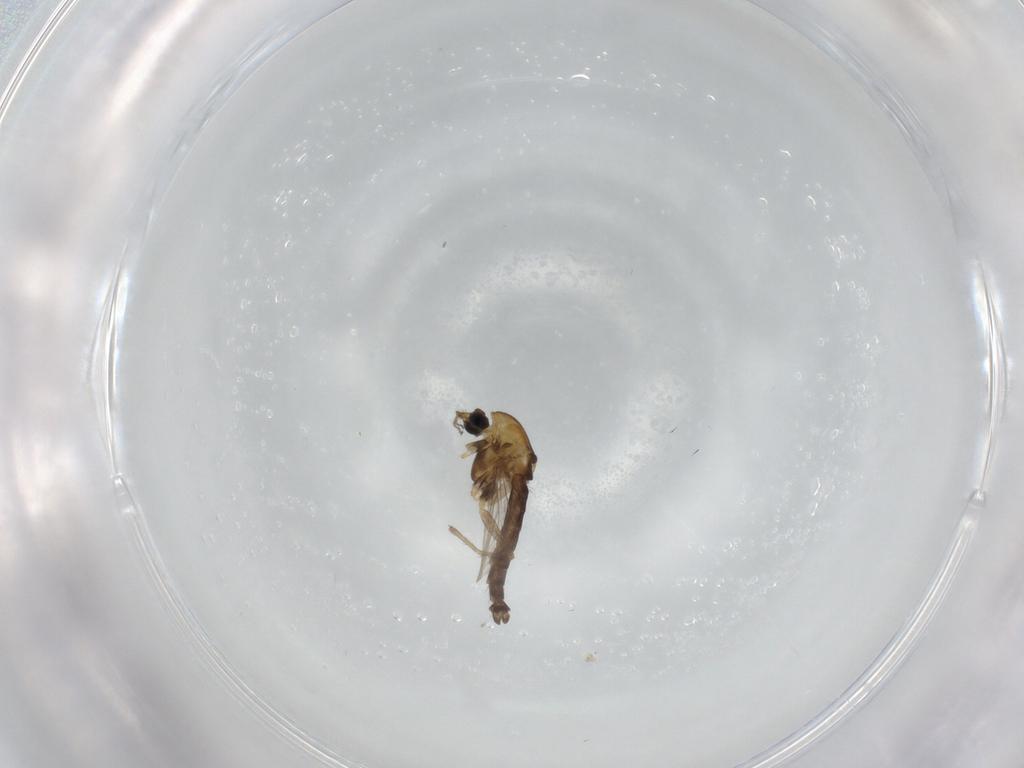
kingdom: Animalia
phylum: Arthropoda
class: Insecta
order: Diptera
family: Chironomidae
